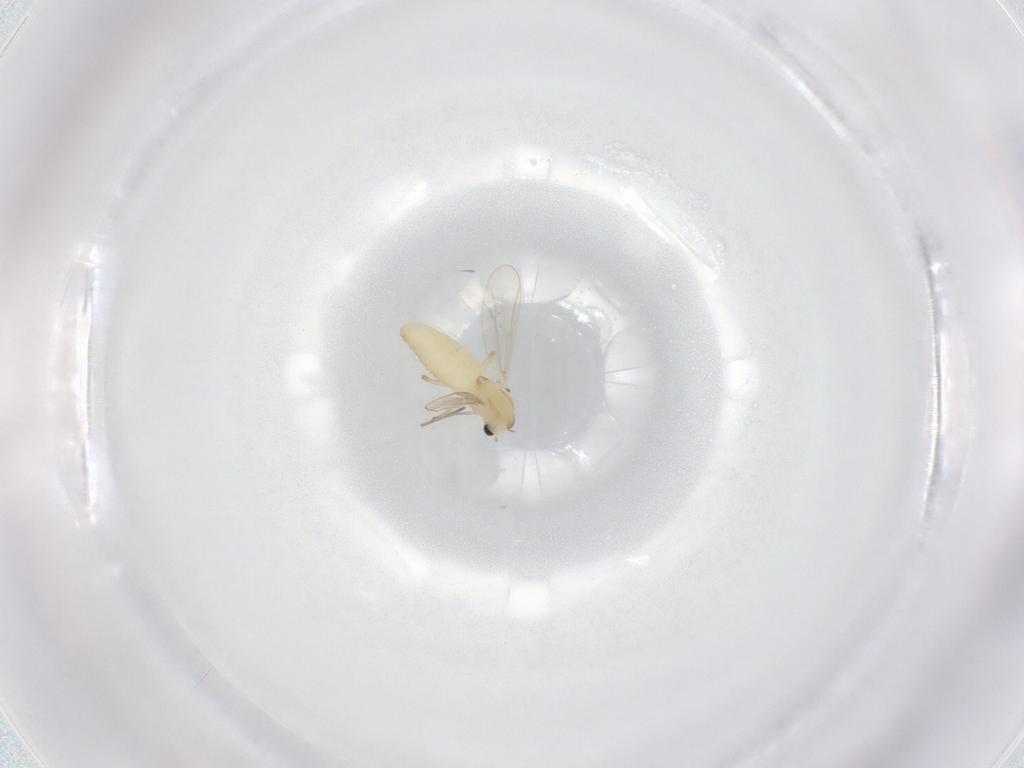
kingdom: Animalia
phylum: Arthropoda
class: Insecta
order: Diptera
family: Chironomidae
